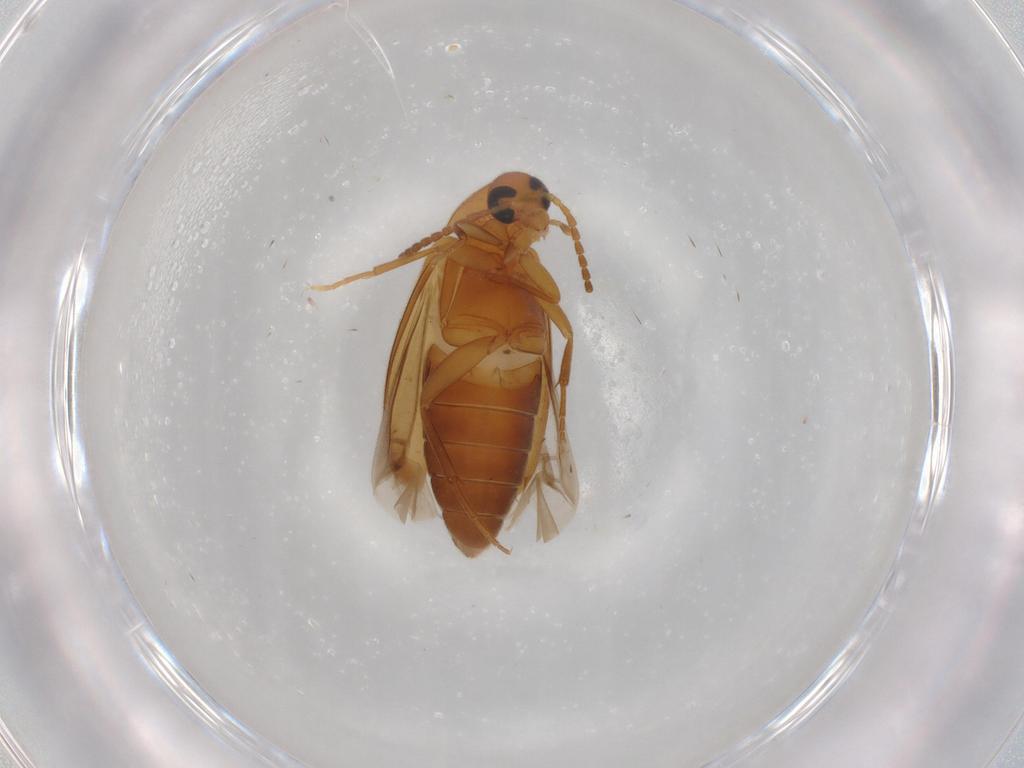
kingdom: Animalia
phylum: Arthropoda
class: Insecta
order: Coleoptera
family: Scraptiidae
